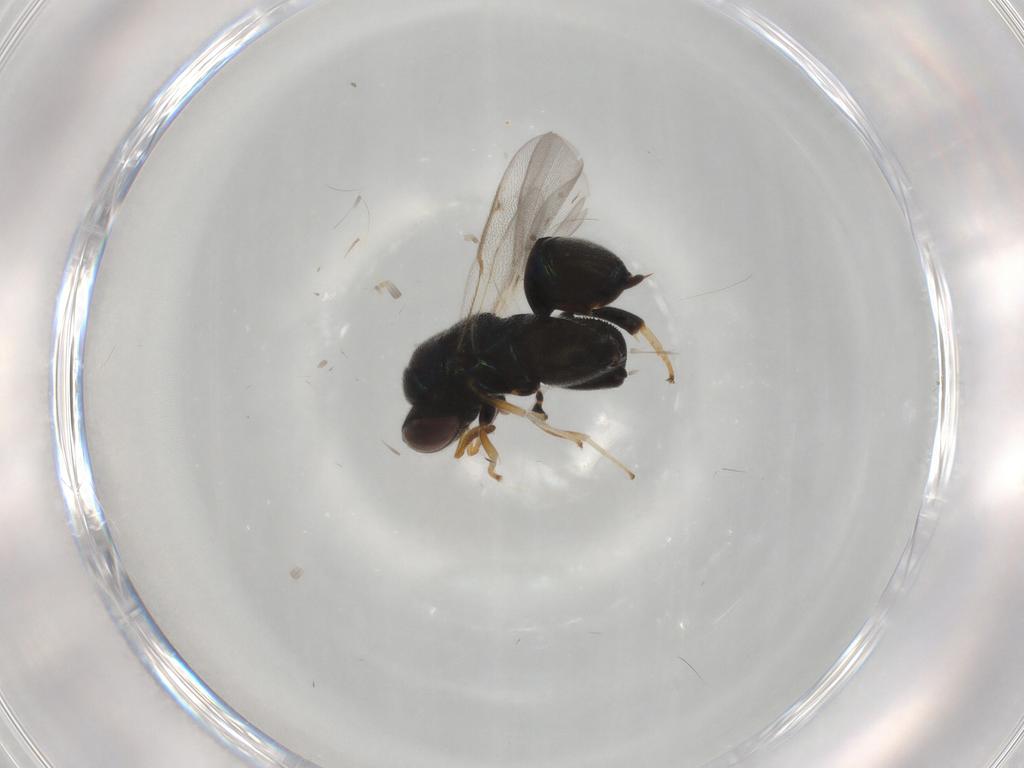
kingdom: Animalia
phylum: Arthropoda
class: Insecta
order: Hymenoptera
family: Torymidae
